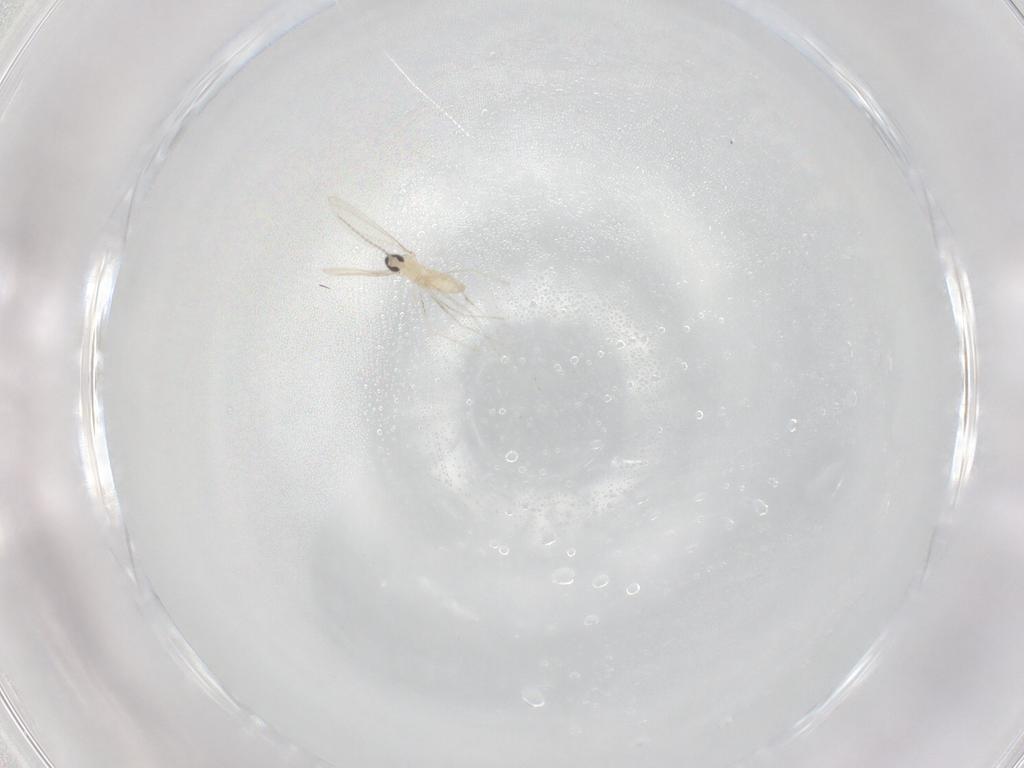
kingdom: Animalia
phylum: Arthropoda
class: Insecta
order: Diptera
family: Cecidomyiidae
